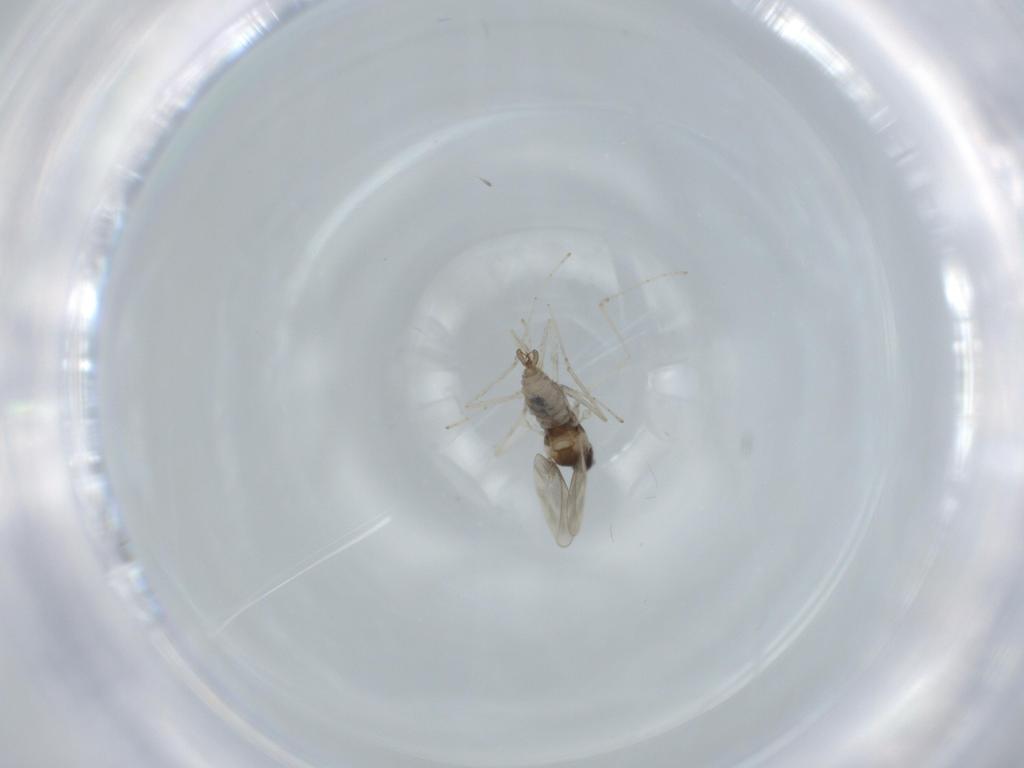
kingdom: Animalia
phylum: Arthropoda
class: Insecta
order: Diptera
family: Cecidomyiidae
